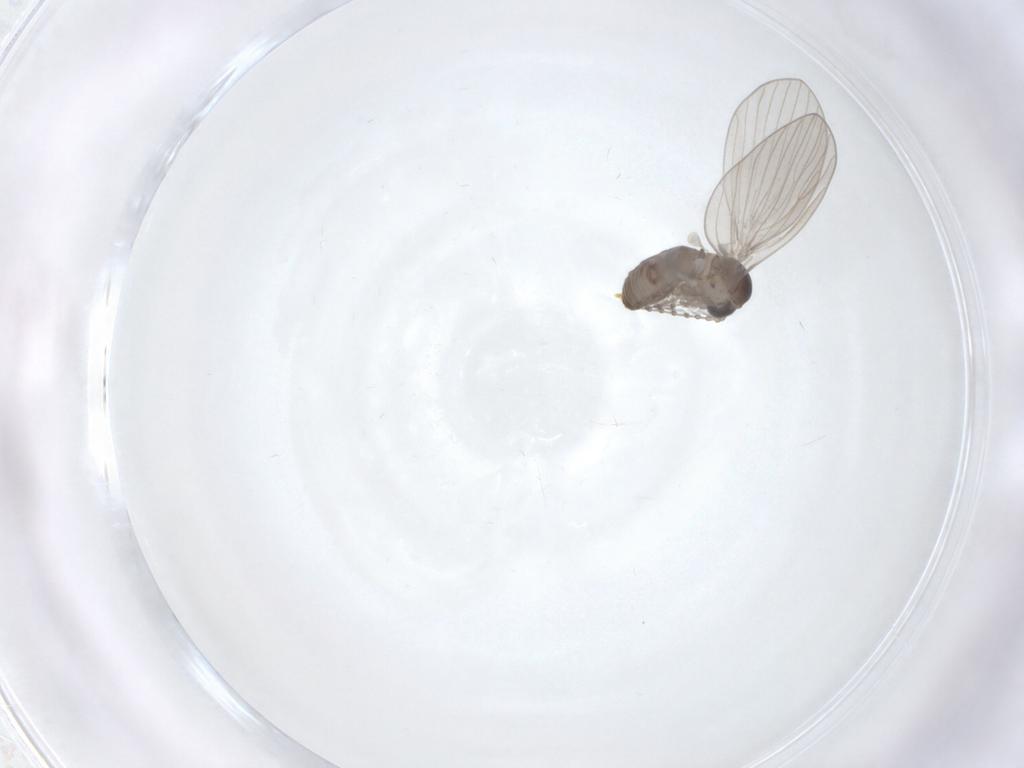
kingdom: Animalia
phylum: Arthropoda
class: Insecta
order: Diptera
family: Psychodidae
